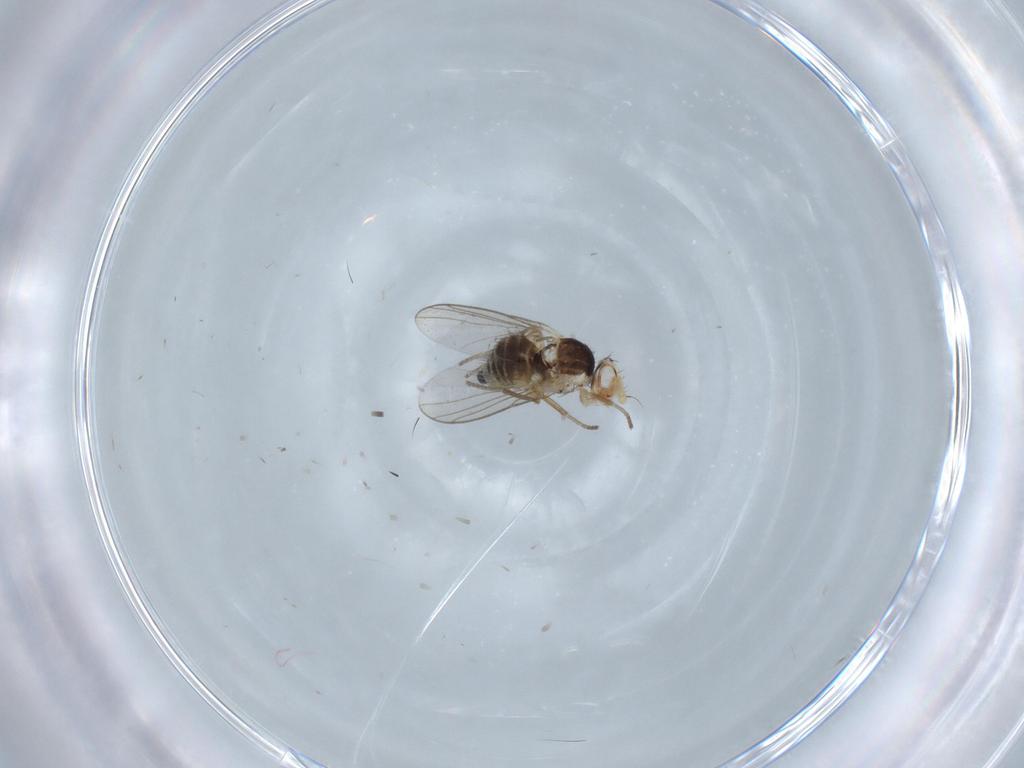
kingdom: Animalia
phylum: Arthropoda
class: Insecta
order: Diptera
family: Agromyzidae
